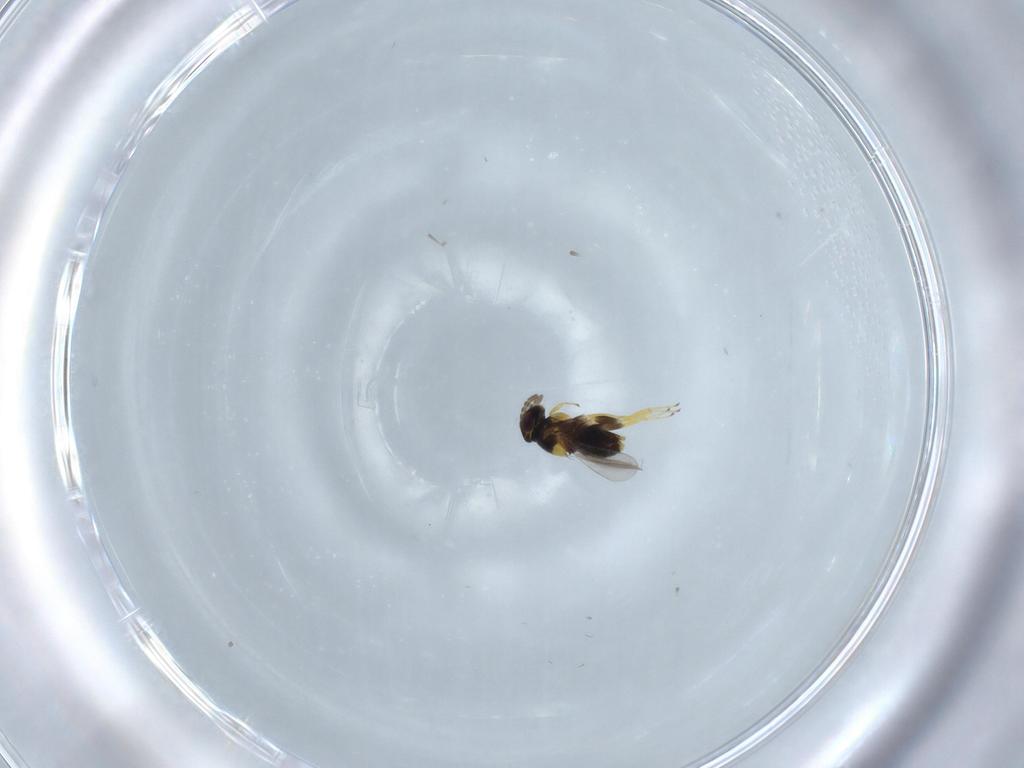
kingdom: Animalia
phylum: Arthropoda
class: Insecta
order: Hymenoptera
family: Aphelinidae
